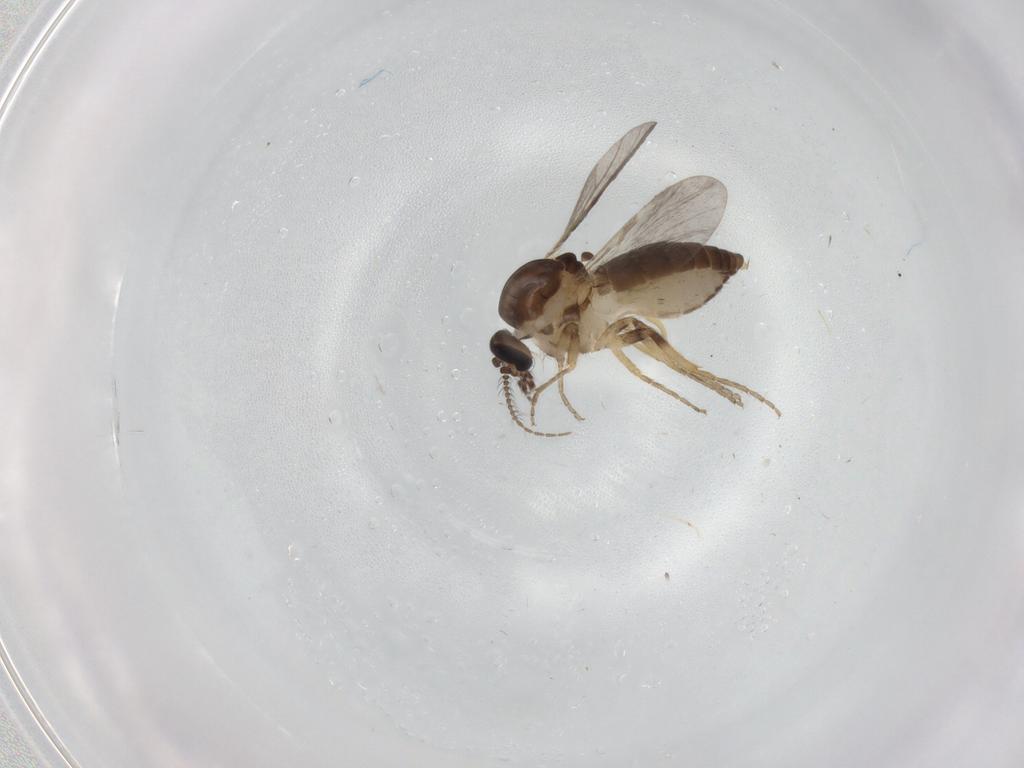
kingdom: Animalia
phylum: Arthropoda
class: Insecta
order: Diptera
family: Ceratopogonidae
